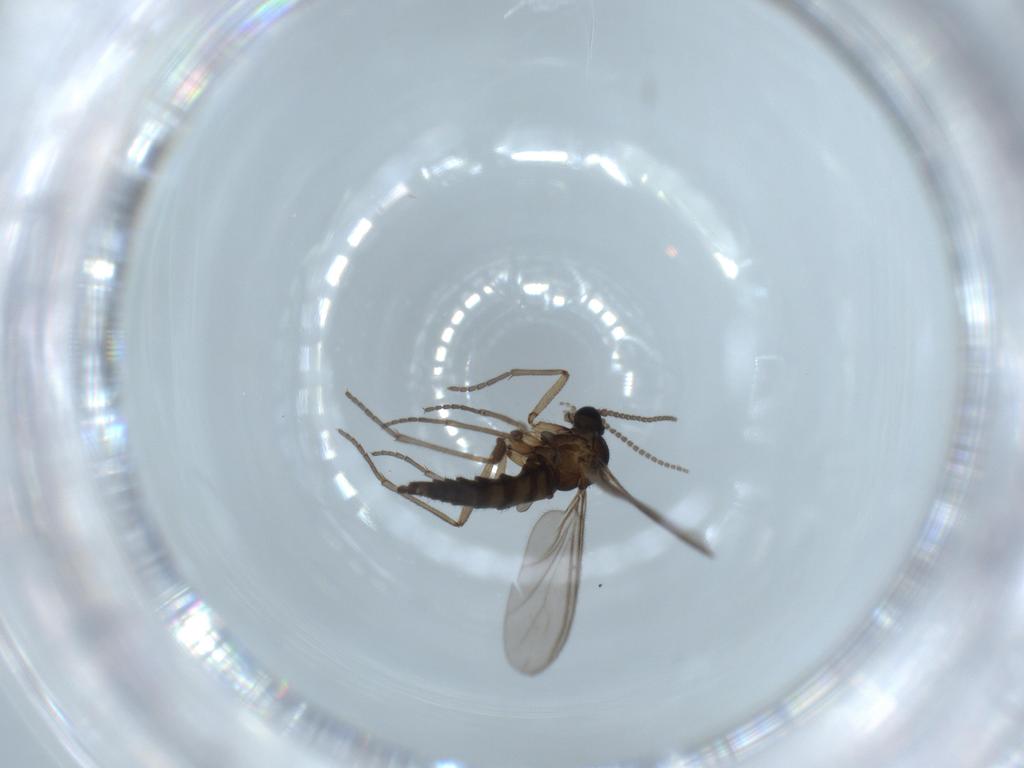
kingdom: Animalia
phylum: Arthropoda
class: Insecta
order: Diptera
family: Sciaridae
